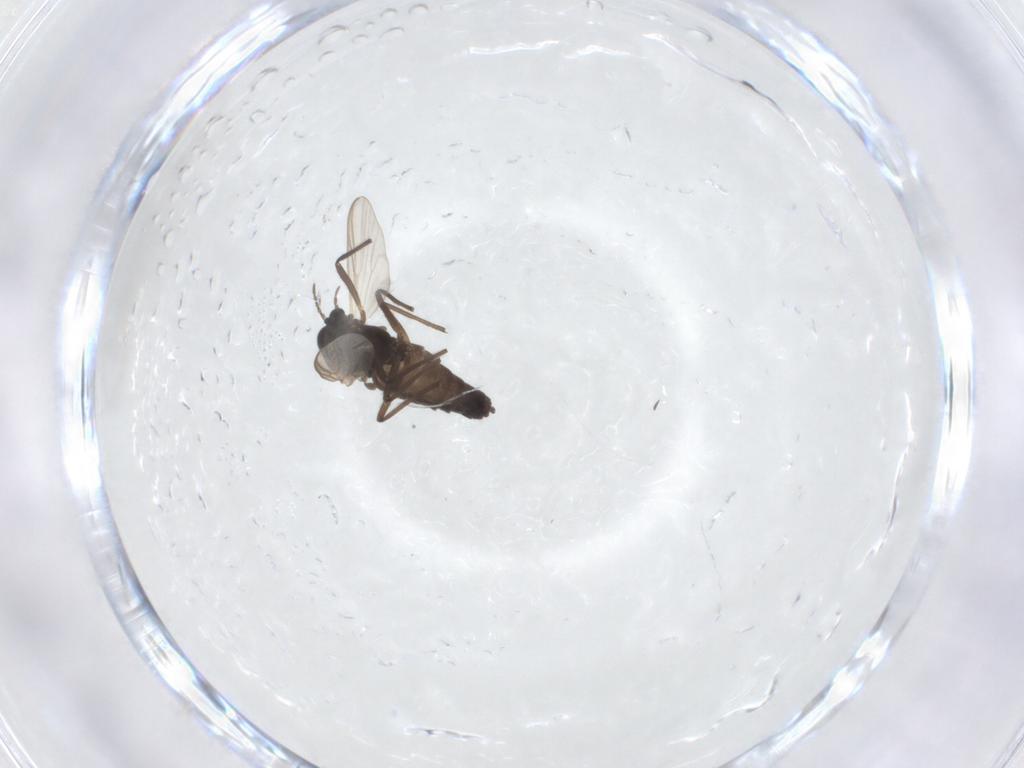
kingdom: Animalia
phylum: Arthropoda
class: Insecta
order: Diptera
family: Chironomidae
